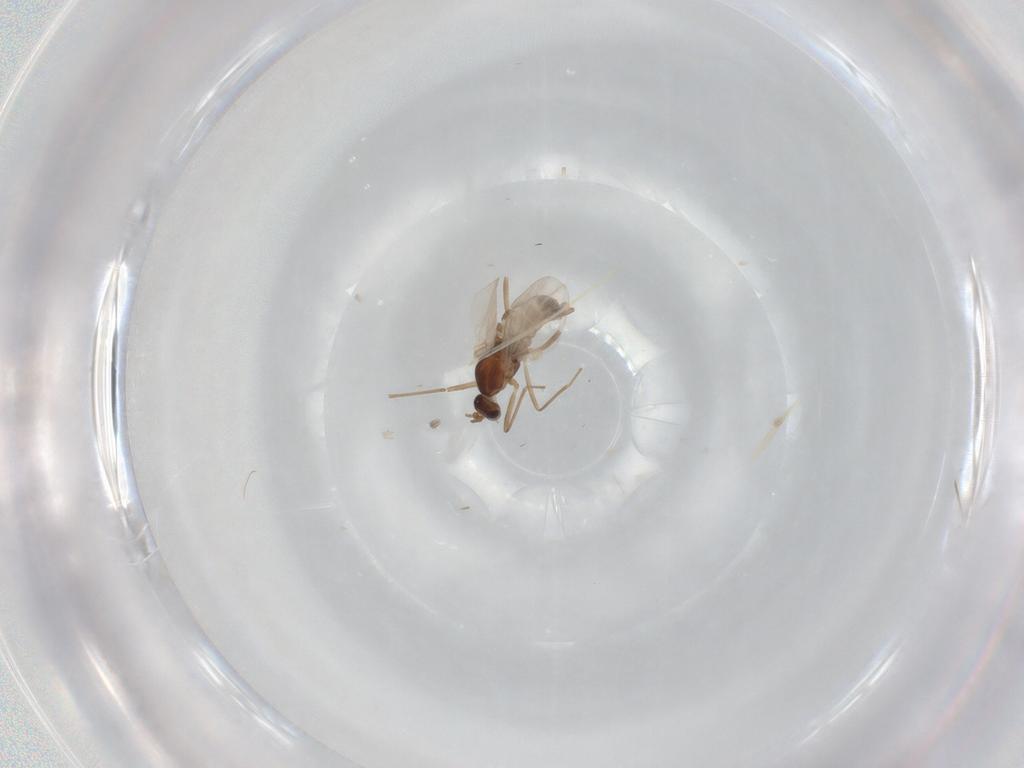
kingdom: Animalia
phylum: Arthropoda
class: Insecta
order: Diptera
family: Cecidomyiidae
